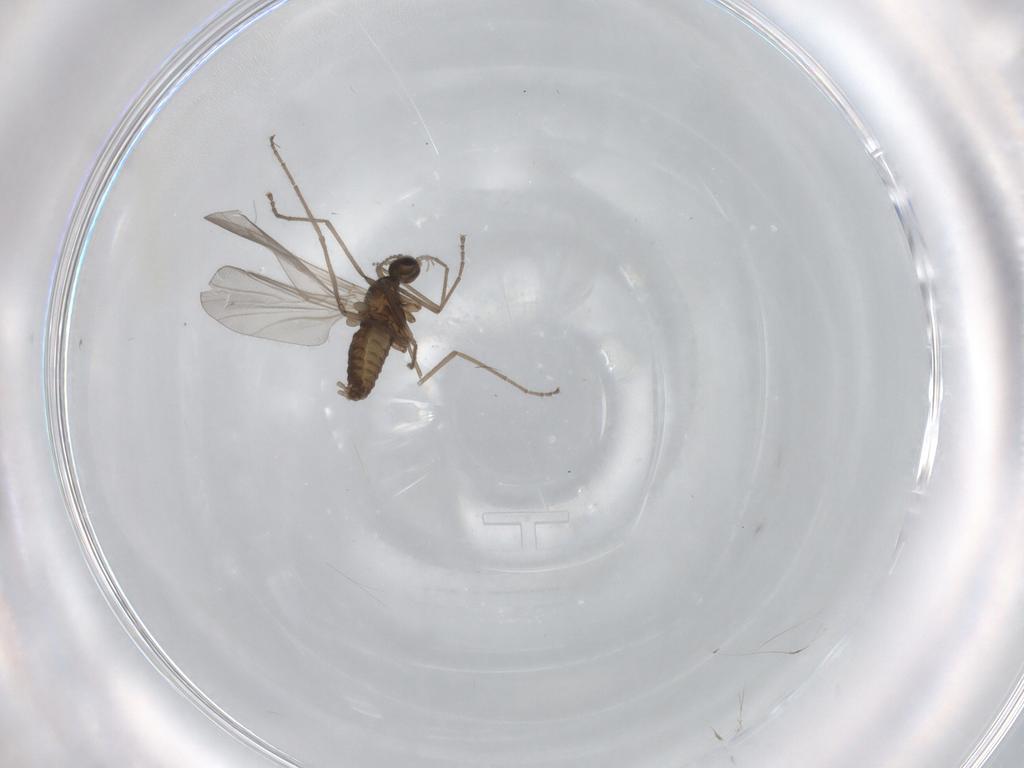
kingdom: Animalia
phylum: Arthropoda
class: Insecta
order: Diptera
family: Cecidomyiidae
